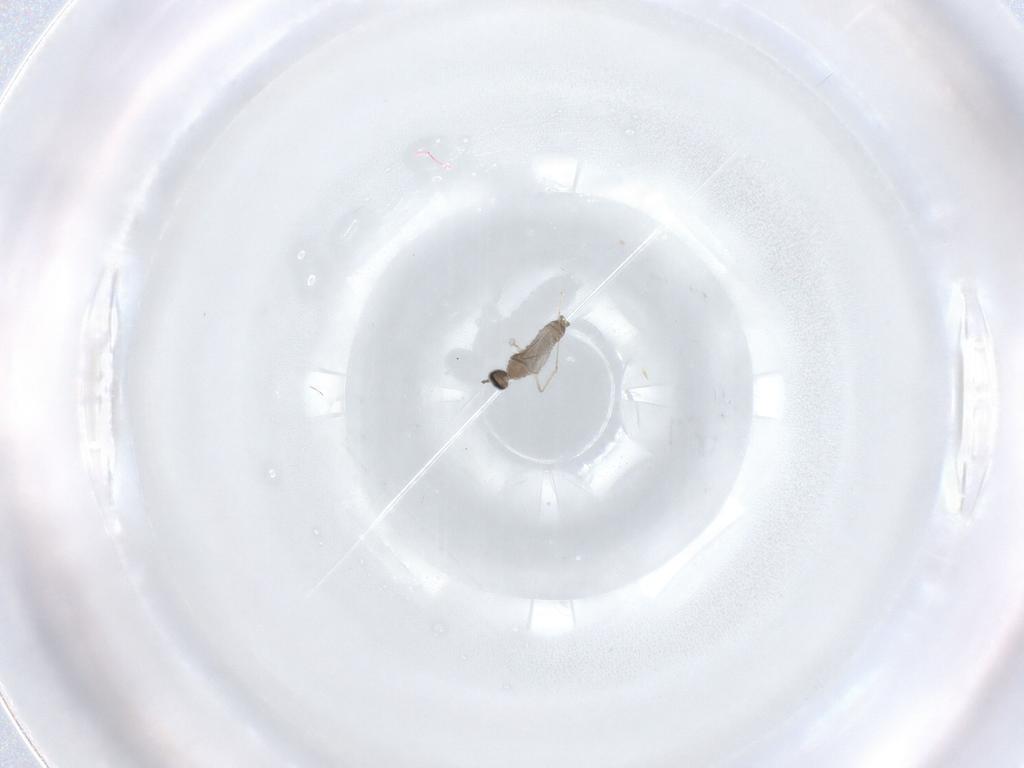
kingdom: Animalia
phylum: Arthropoda
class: Insecta
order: Diptera
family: Cecidomyiidae
